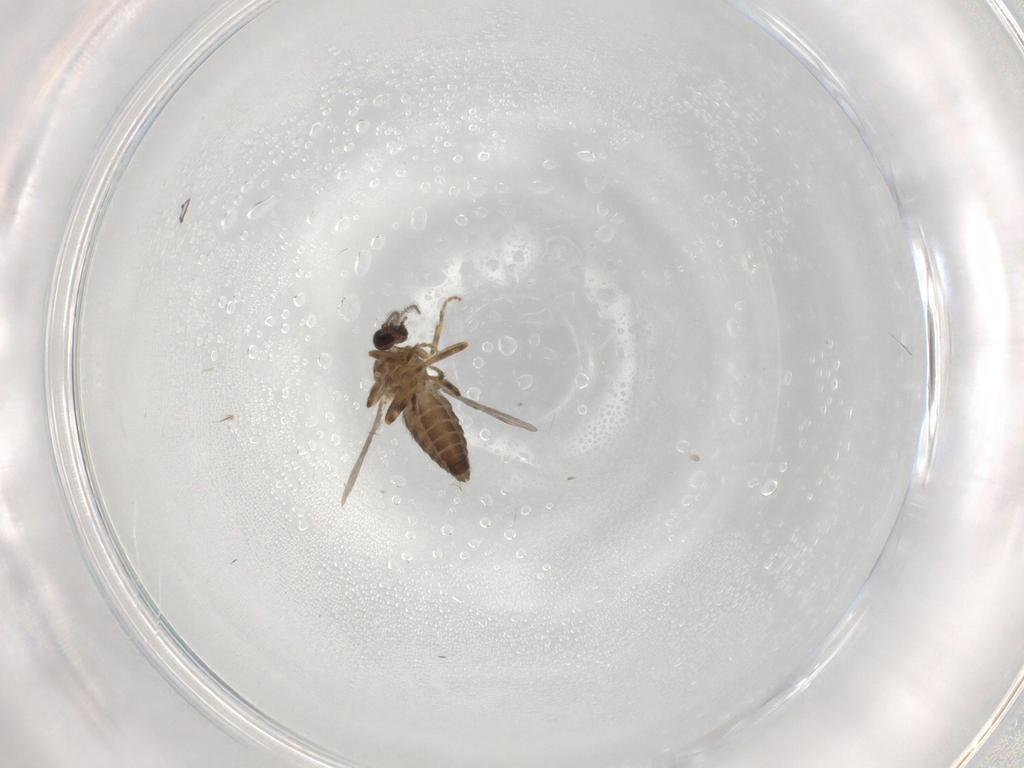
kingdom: Animalia
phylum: Arthropoda
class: Insecta
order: Diptera
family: Ceratopogonidae
